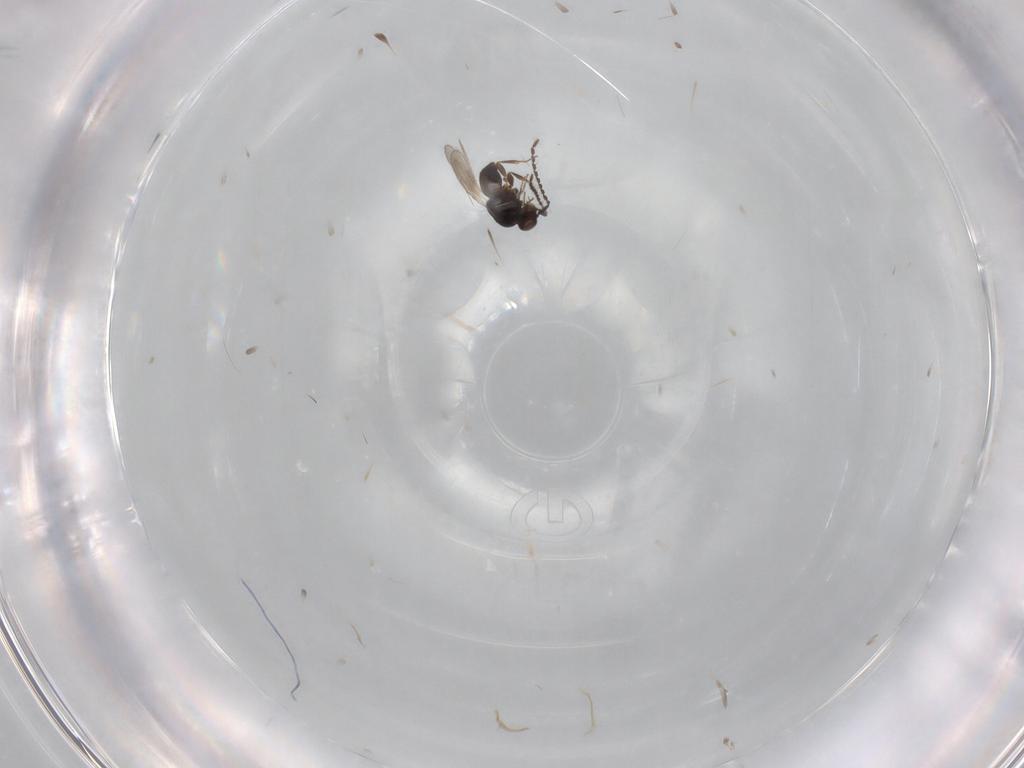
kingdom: Animalia
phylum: Arthropoda
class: Insecta
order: Hymenoptera
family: Ceraphronidae
